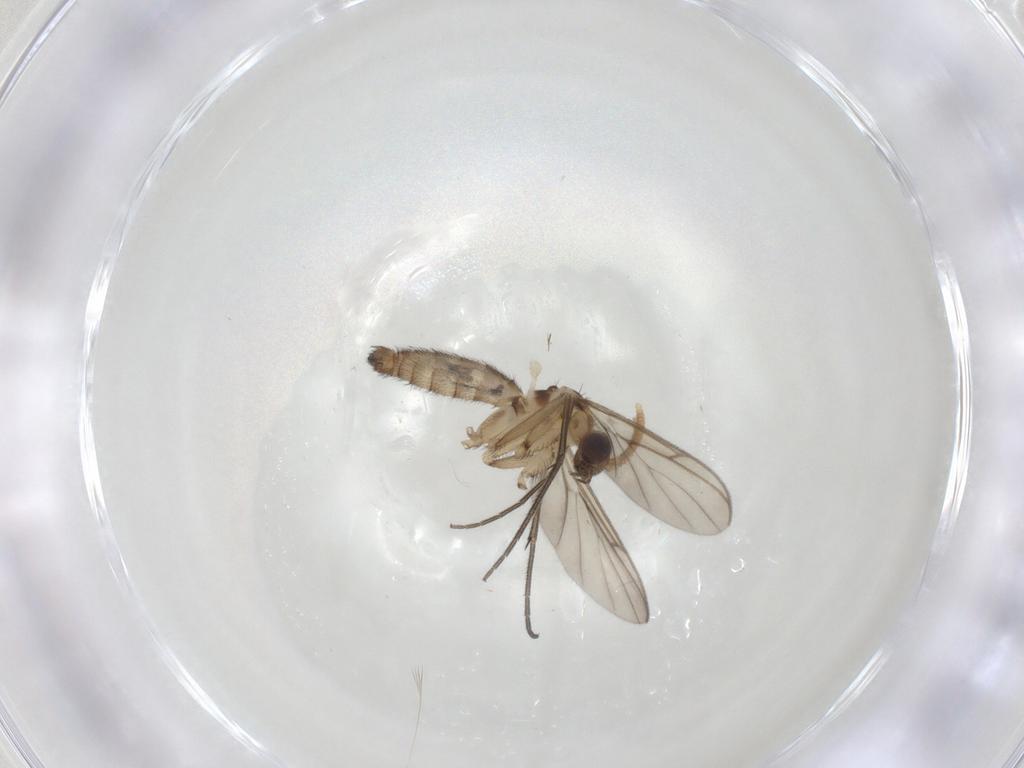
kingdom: Animalia
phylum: Arthropoda
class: Insecta
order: Diptera
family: Keroplatidae
